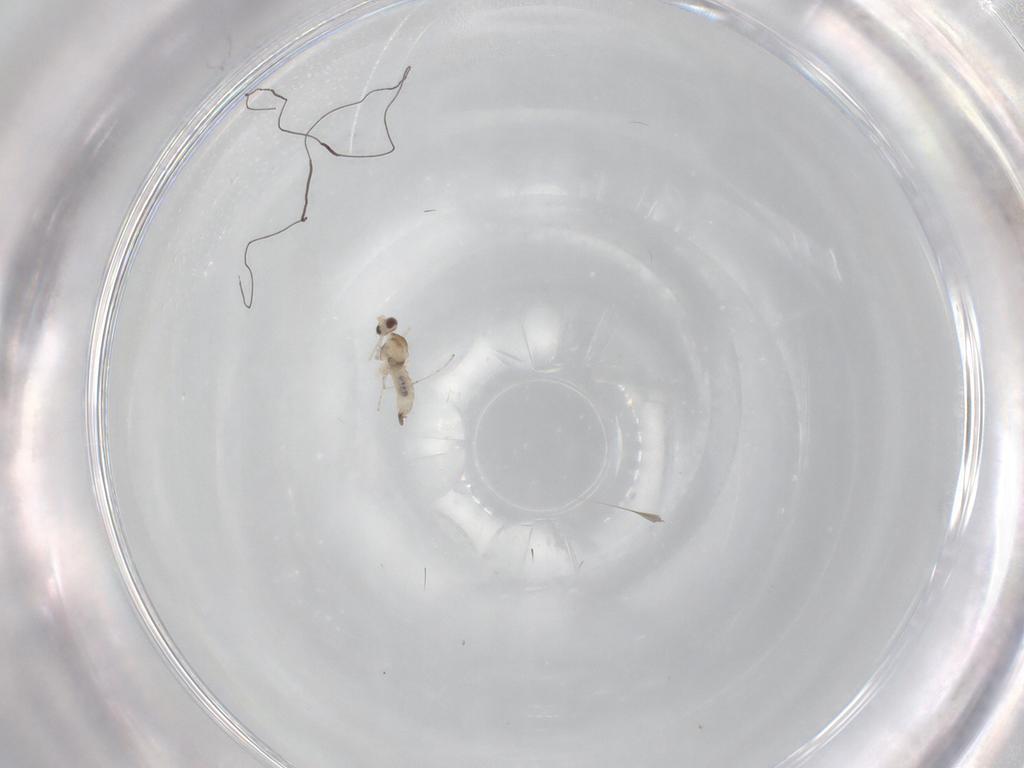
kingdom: Animalia
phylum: Arthropoda
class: Insecta
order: Diptera
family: Cecidomyiidae
